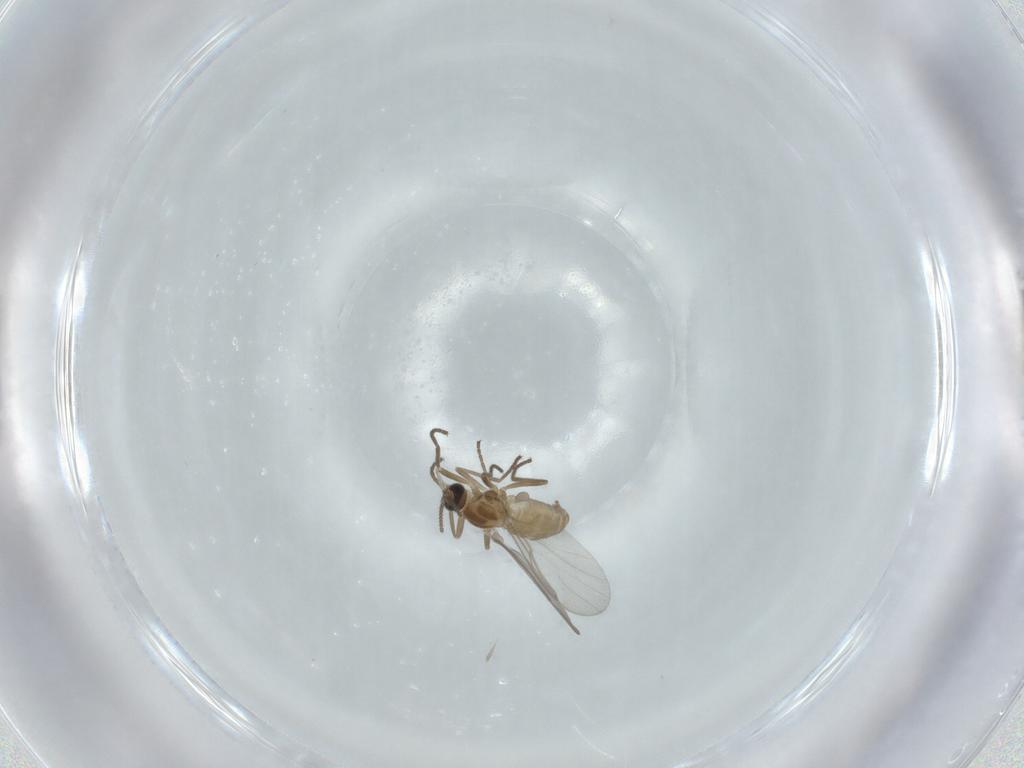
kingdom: Animalia
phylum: Arthropoda
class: Insecta
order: Diptera
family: Cecidomyiidae
